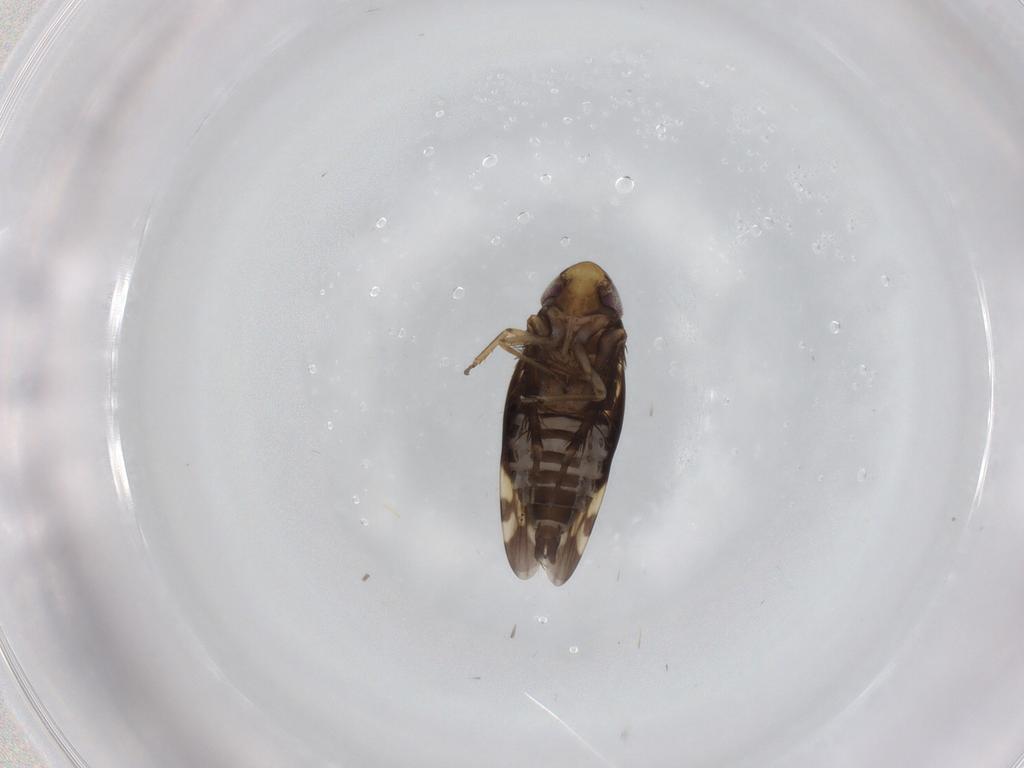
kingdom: Animalia
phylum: Arthropoda
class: Insecta
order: Hemiptera
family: Cicadellidae
